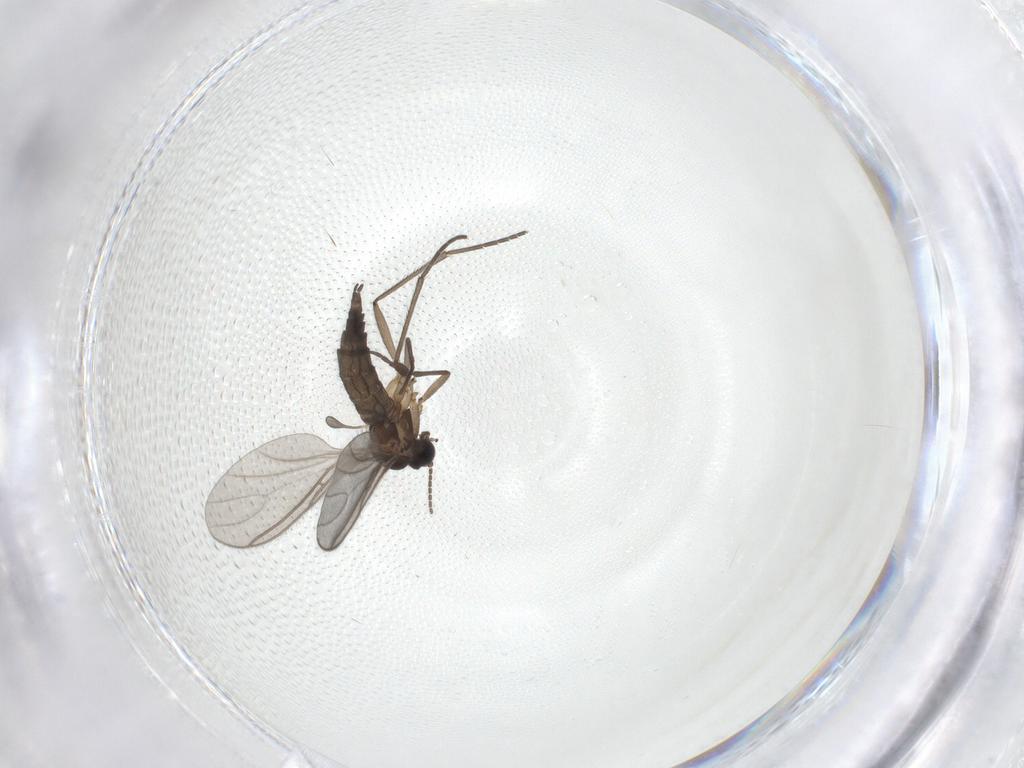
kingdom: Animalia
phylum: Arthropoda
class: Insecta
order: Diptera
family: Sciaridae
